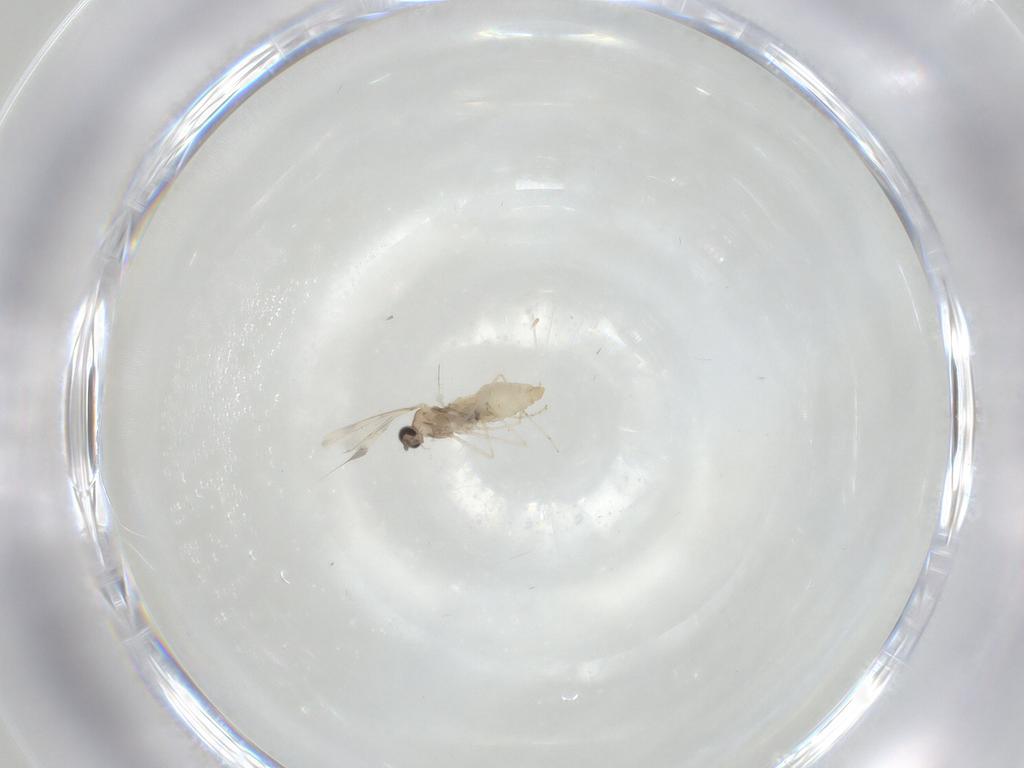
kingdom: Animalia
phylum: Arthropoda
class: Insecta
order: Diptera
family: Cecidomyiidae
